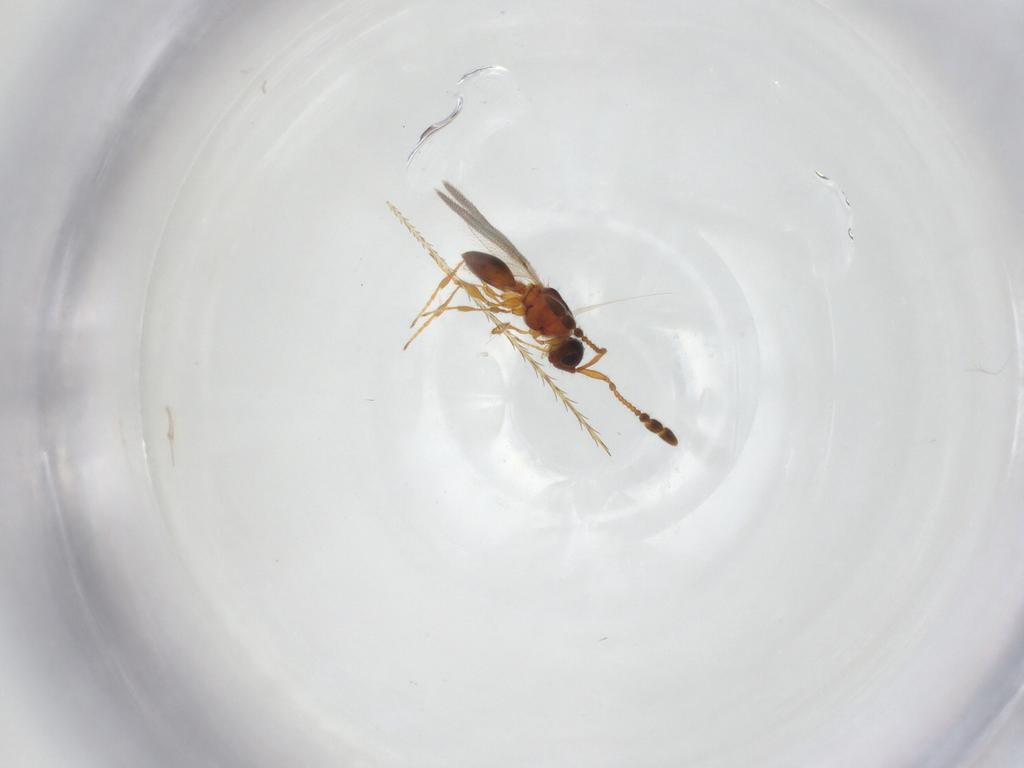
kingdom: Animalia
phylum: Arthropoda
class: Insecta
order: Hymenoptera
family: Diapriidae
